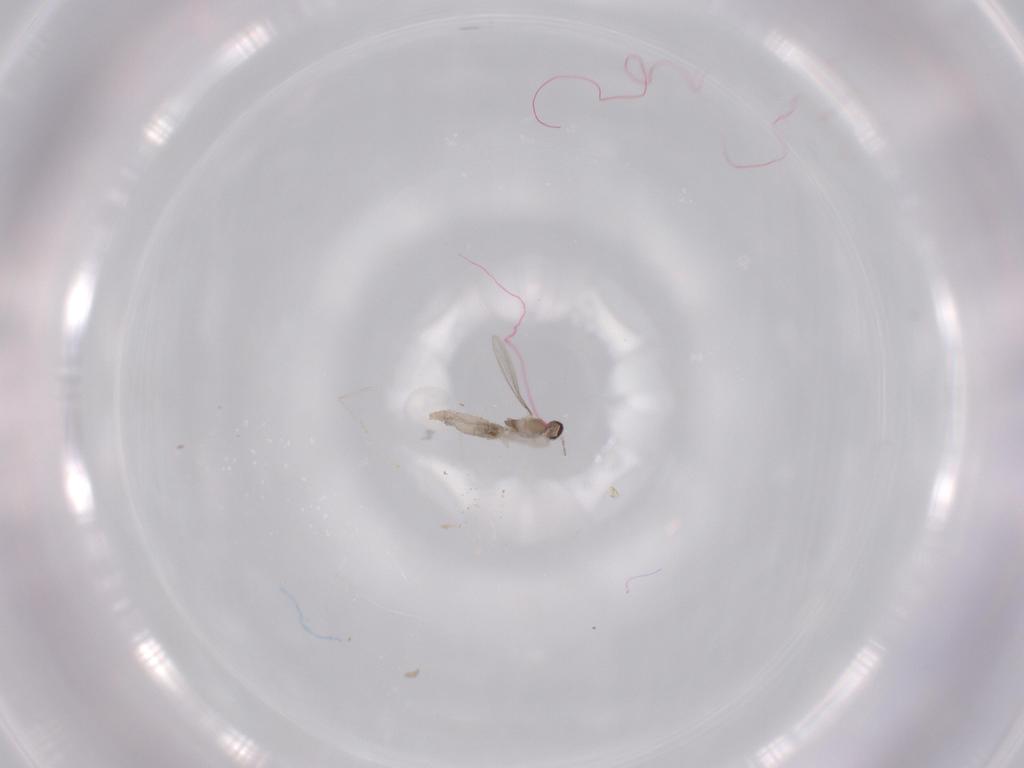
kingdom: Animalia
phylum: Arthropoda
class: Insecta
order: Diptera
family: Cecidomyiidae
